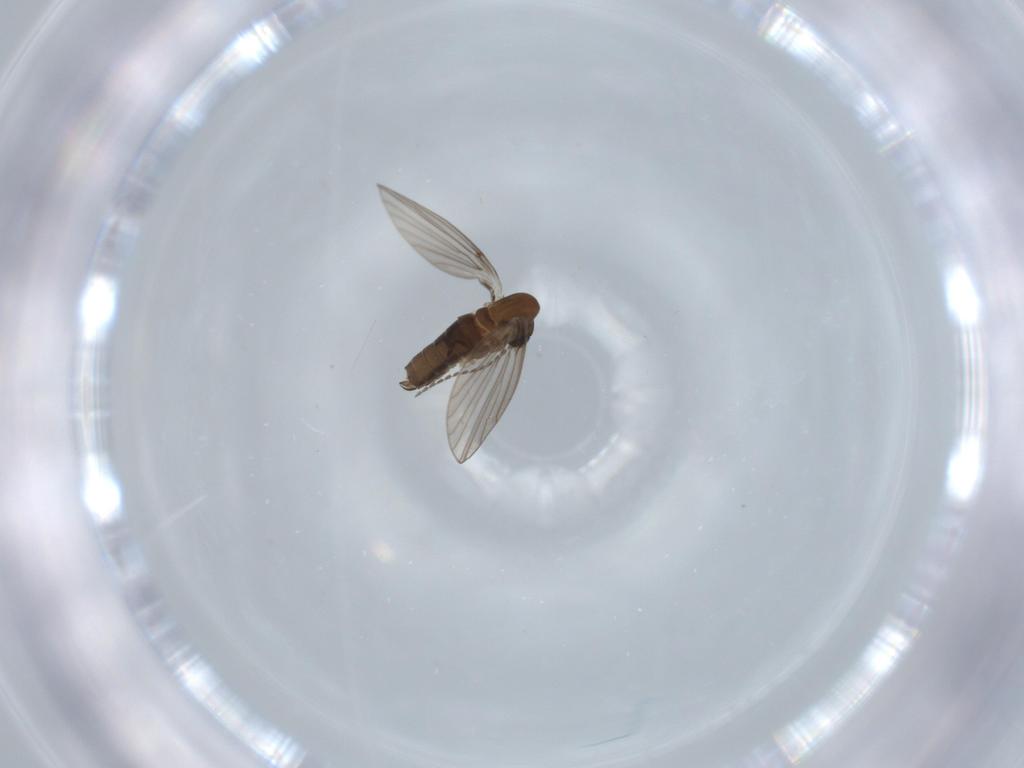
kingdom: Animalia
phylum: Arthropoda
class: Insecta
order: Diptera
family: Psychodidae
